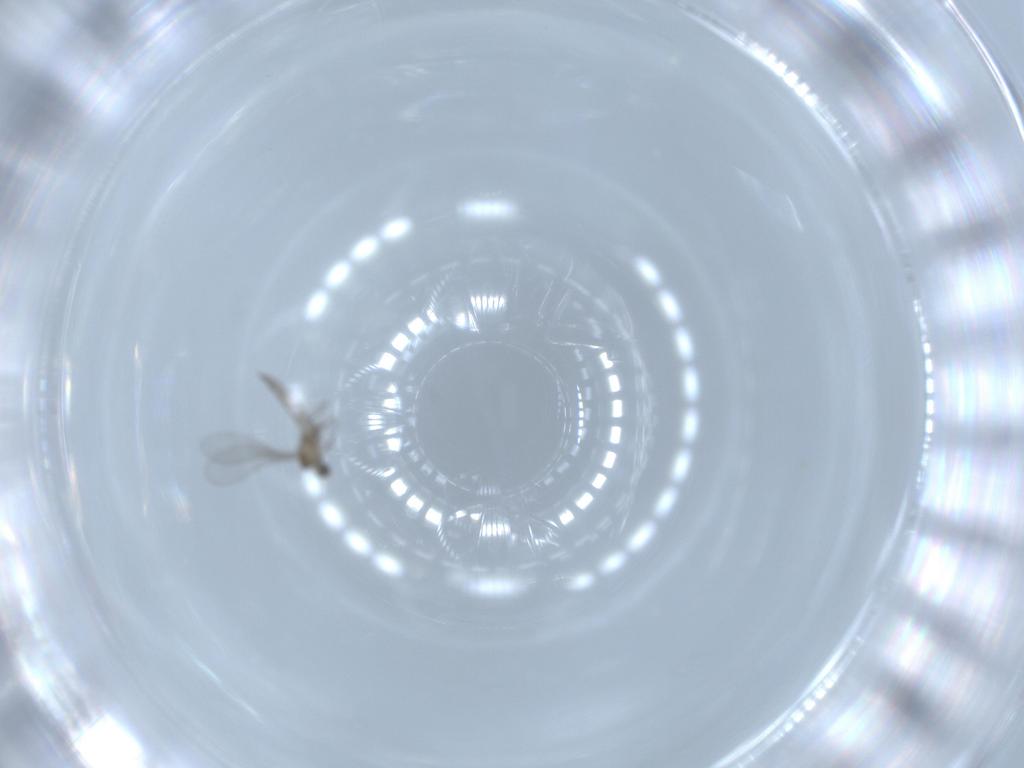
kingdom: Animalia
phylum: Arthropoda
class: Insecta
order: Diptera
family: Cecidomyiidae
